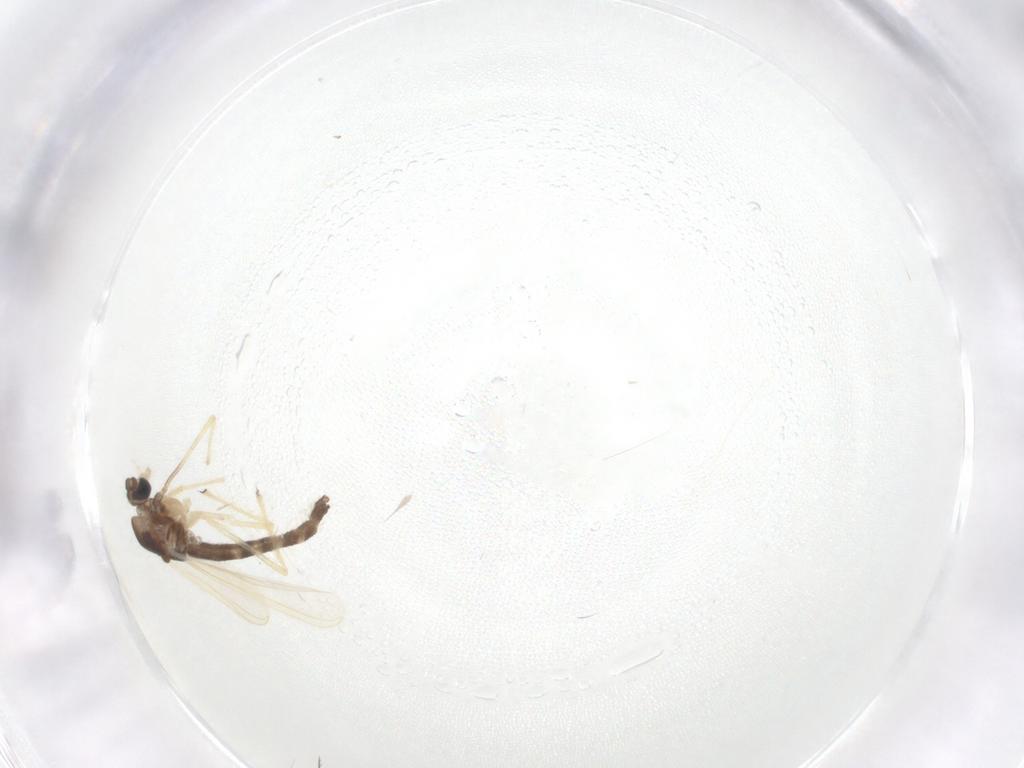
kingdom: Animalia
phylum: Arthropoda
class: Insecta
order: Diptera
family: Chironomidae
